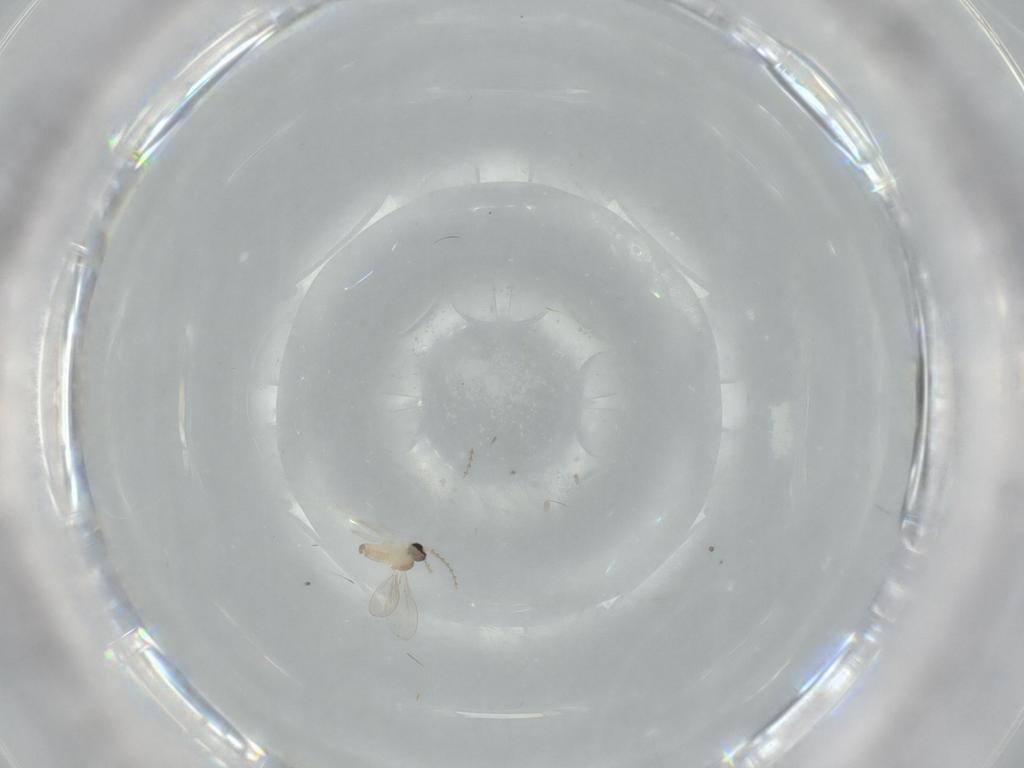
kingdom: Animalia
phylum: Arthropoda
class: Insecta
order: Diptera
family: Cecidomyiidae
